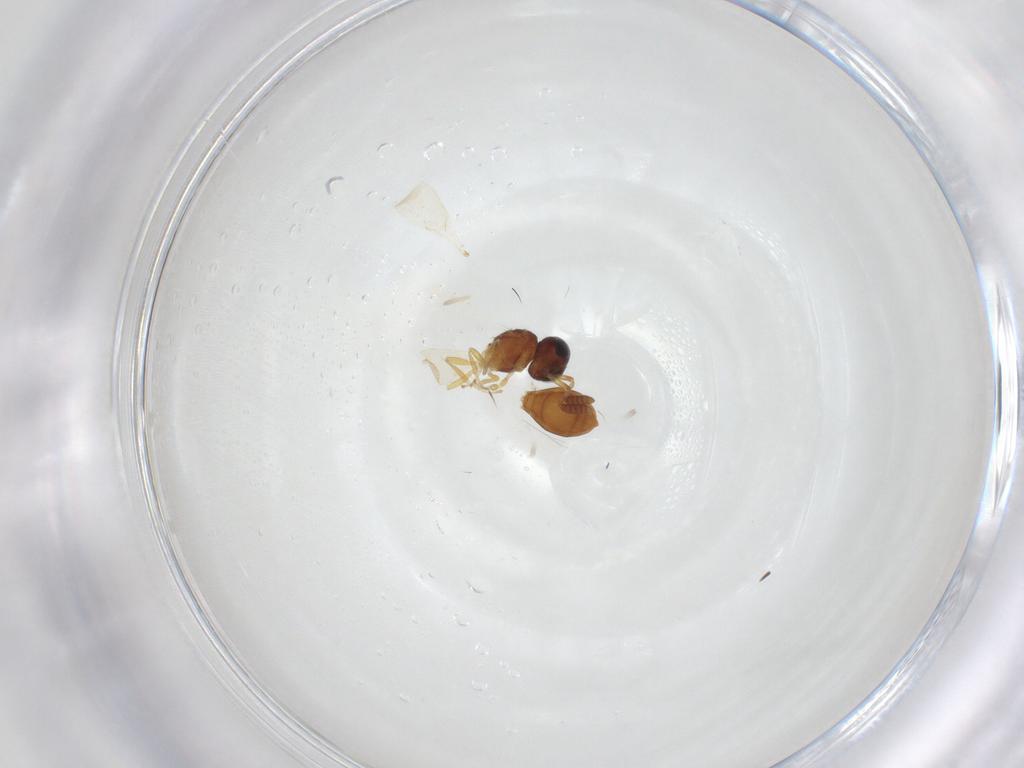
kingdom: Animalia
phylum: Arthropoda
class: Insecta
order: Hymenoptera
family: Scelionidae
